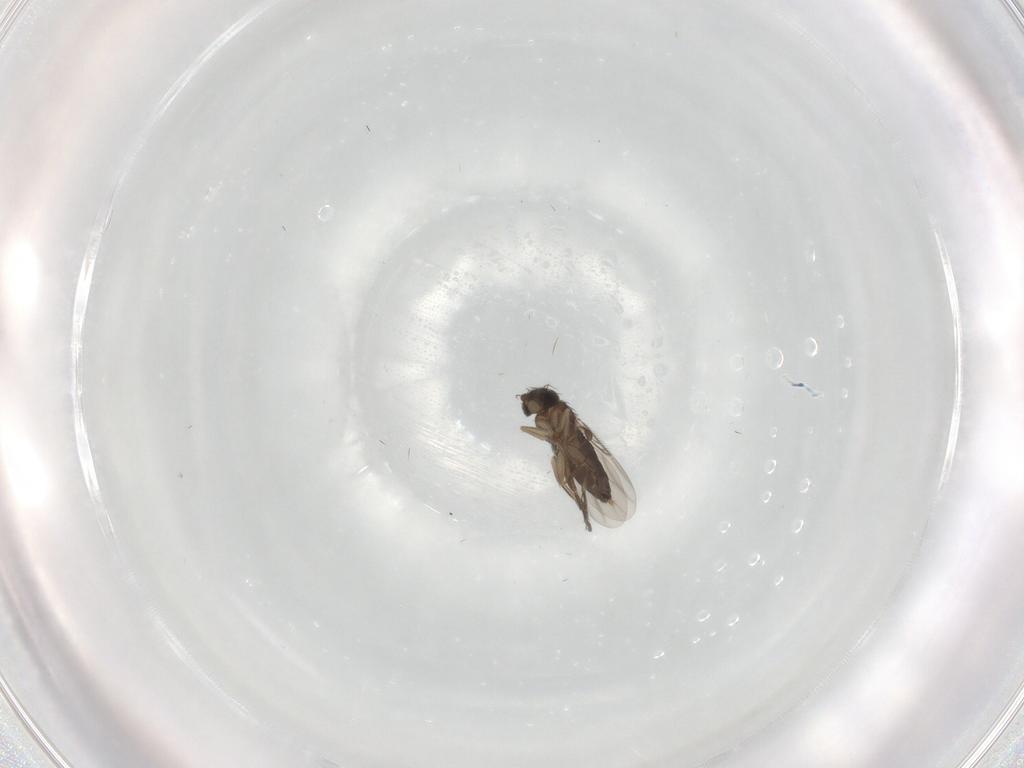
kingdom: Animalia
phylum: Arthropoda
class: Insecta
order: Diptera
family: Phoridae
